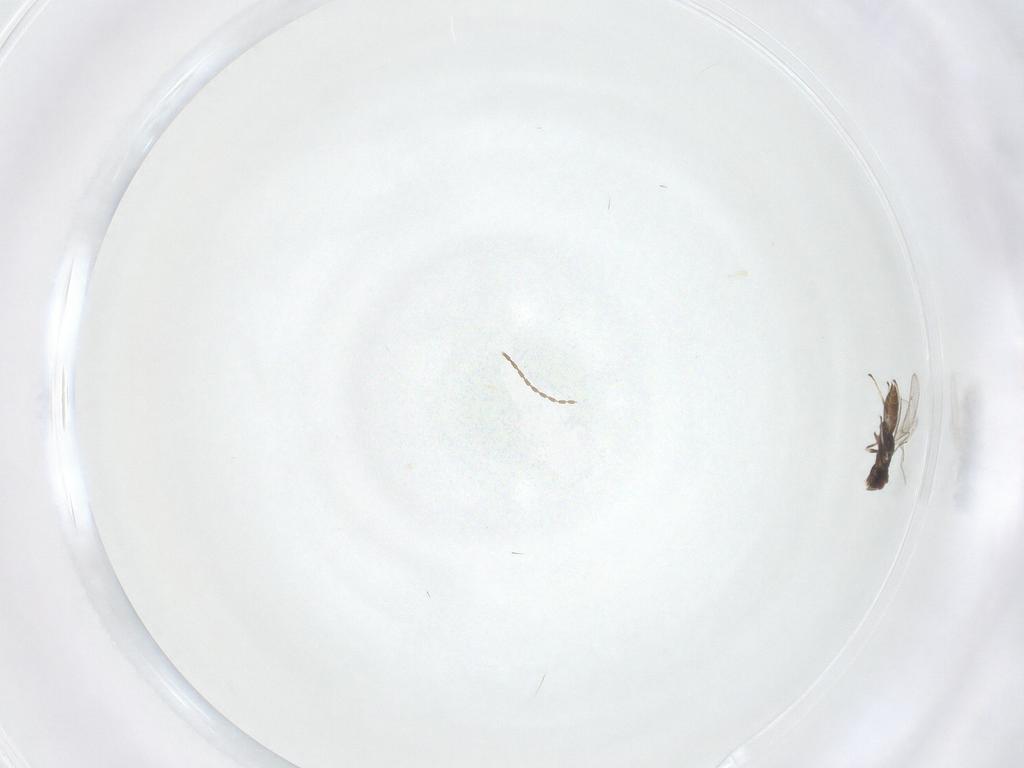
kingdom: Animalia
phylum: Arthropoda
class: Insecta
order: Diptera
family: Cecidomyiidae
